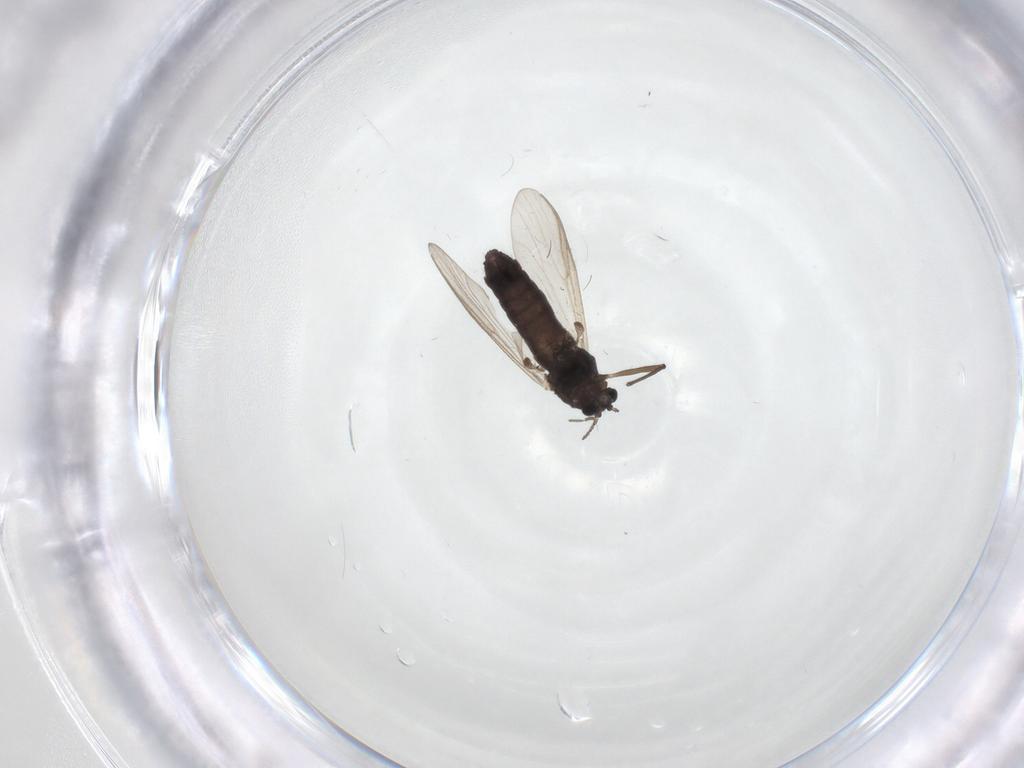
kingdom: Animalia
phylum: Arthropoda
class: Insecta
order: Diptera
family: Chironomidae
